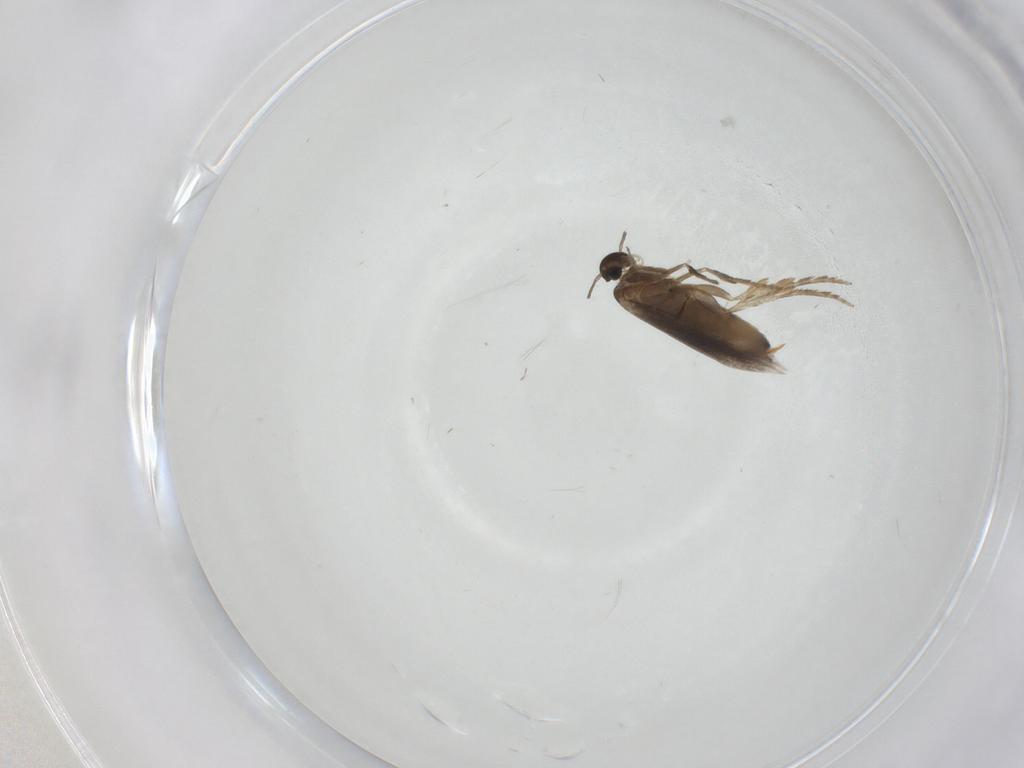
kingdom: Animalia
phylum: Arthropoda
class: Insecta
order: Lepidoptera
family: Heliozelidae
